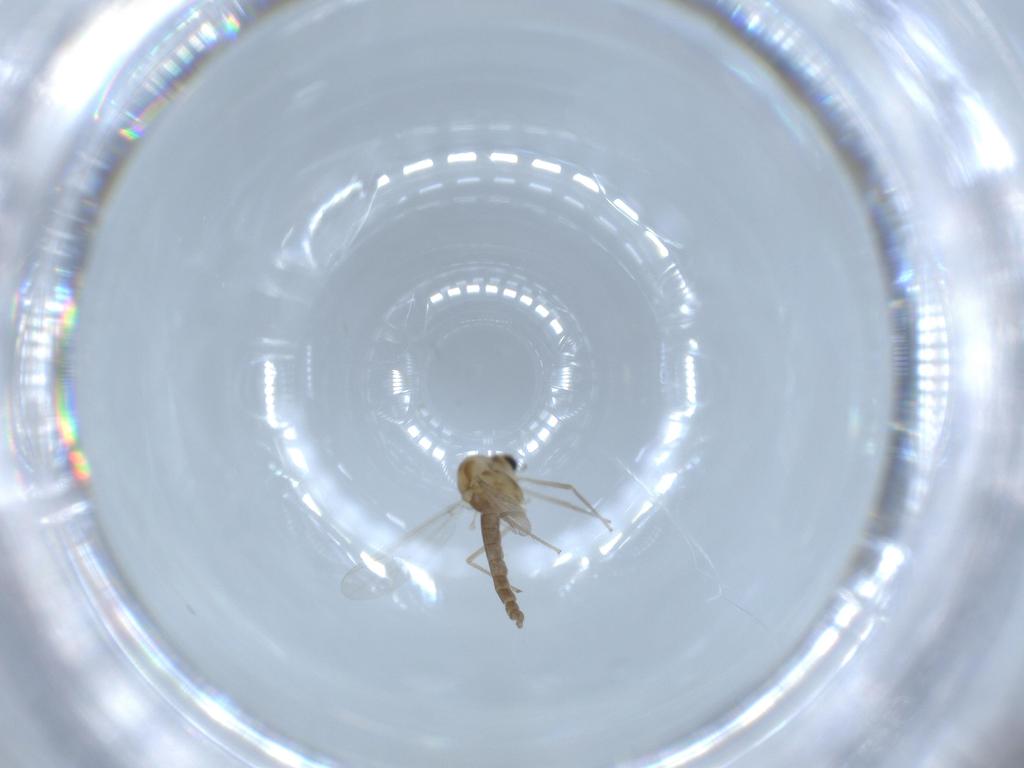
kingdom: Animalia
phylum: Arthropoda
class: Insecta
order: Diptera
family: Chironomidae
